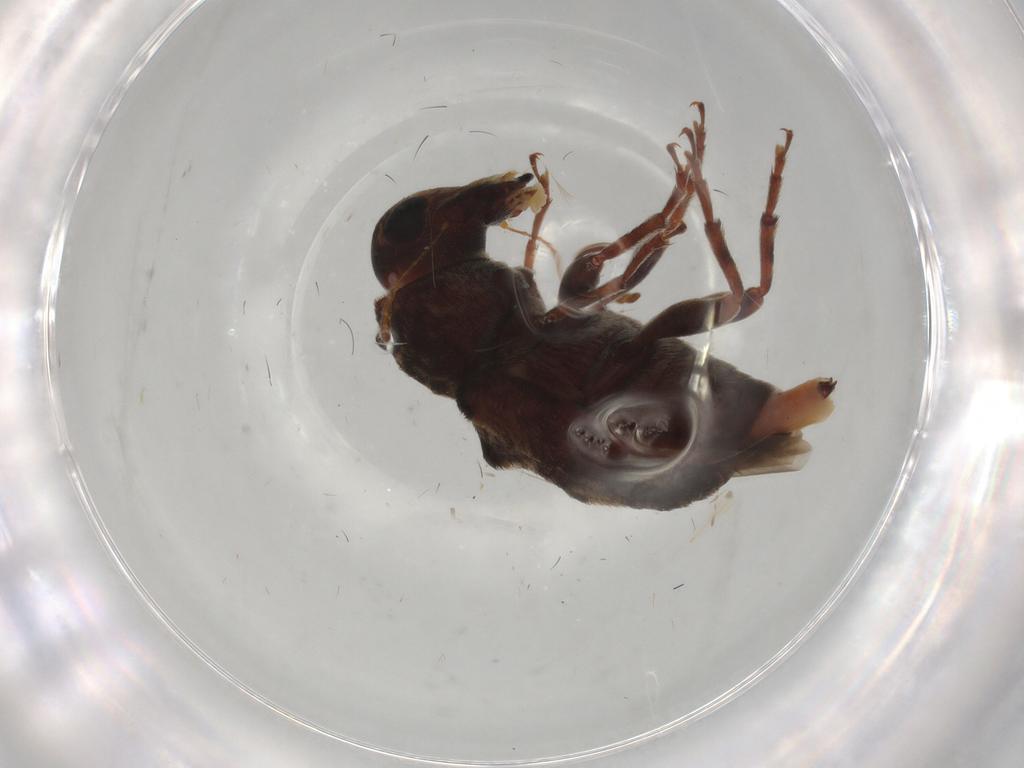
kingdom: Animalia
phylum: Arthropoda
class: Insecta
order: Coleoptera
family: Anthribidae
